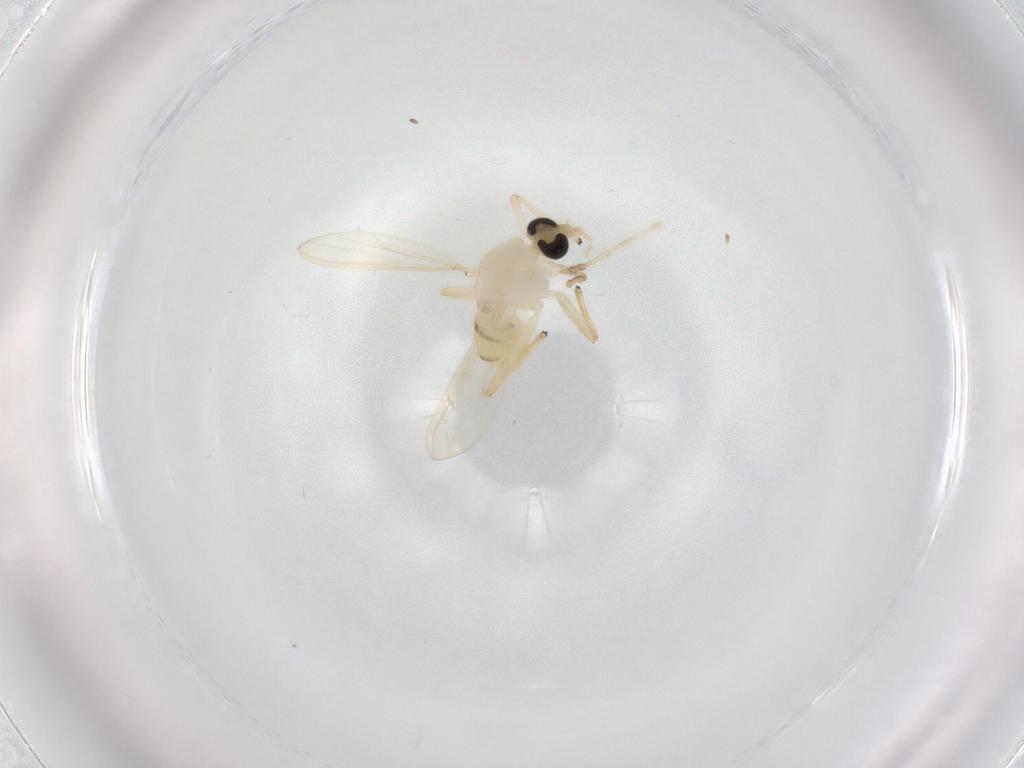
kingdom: Animalia
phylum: Arthropoda
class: Insecta
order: Diptera
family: Chironomidae
